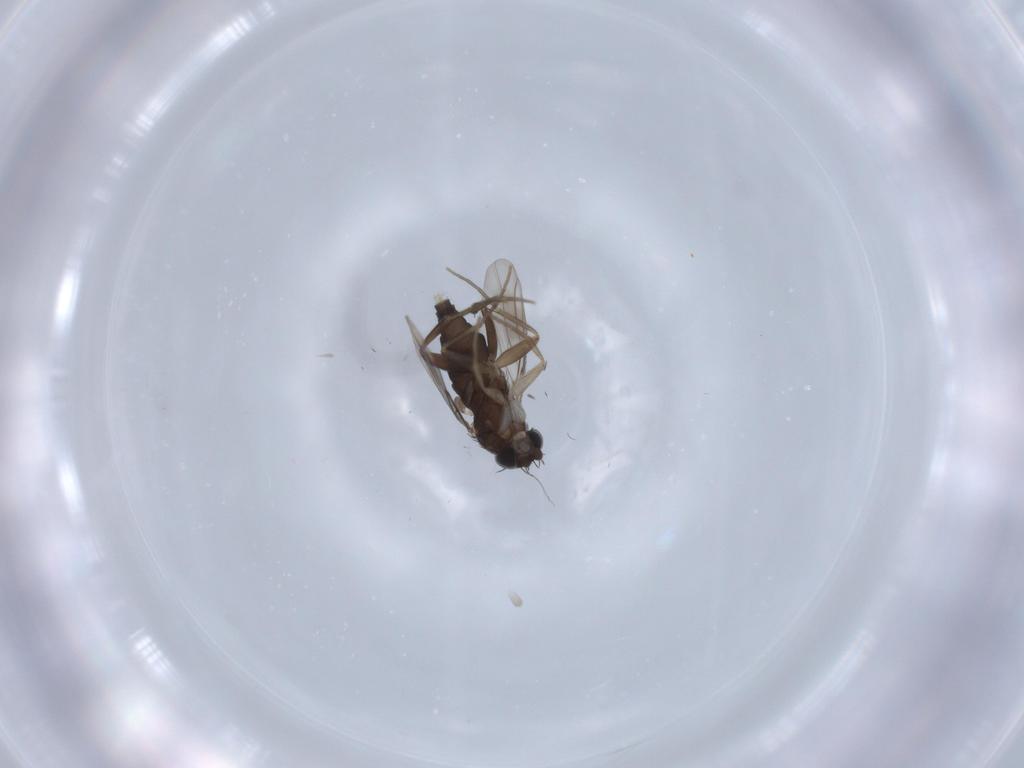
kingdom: Animalia
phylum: Arthropoda
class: Insecta
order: Diptera
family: Phoridae
